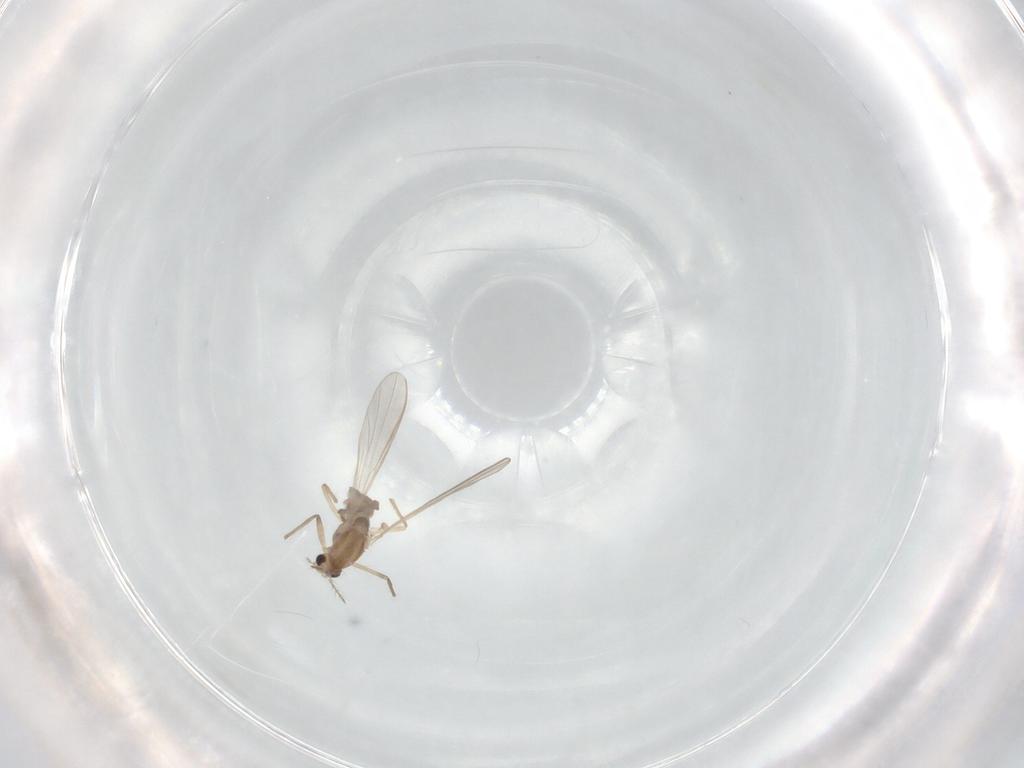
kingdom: Animalia
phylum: Arthropoda
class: Insecta
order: Diptera
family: Chironomidae
